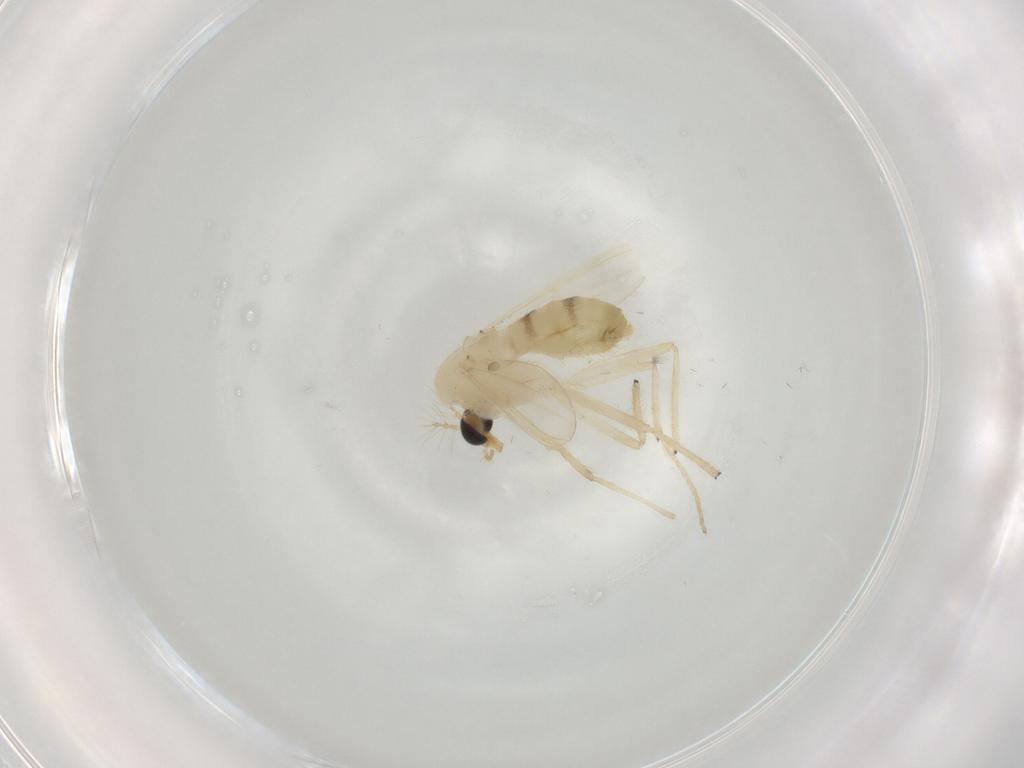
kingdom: Animalia
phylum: Arthropoda
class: Insecta
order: Diptera
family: Chironomidae
